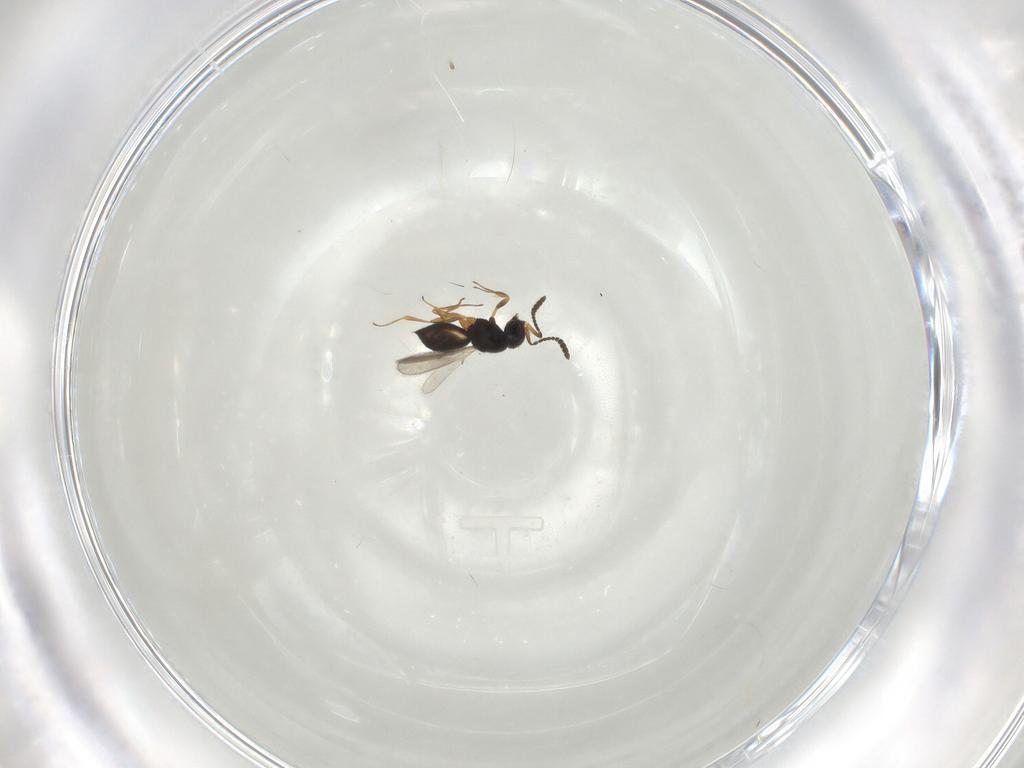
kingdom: Animalia
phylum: Arthropoda
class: Insecta
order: Hymenoptera
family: Scelionidae
